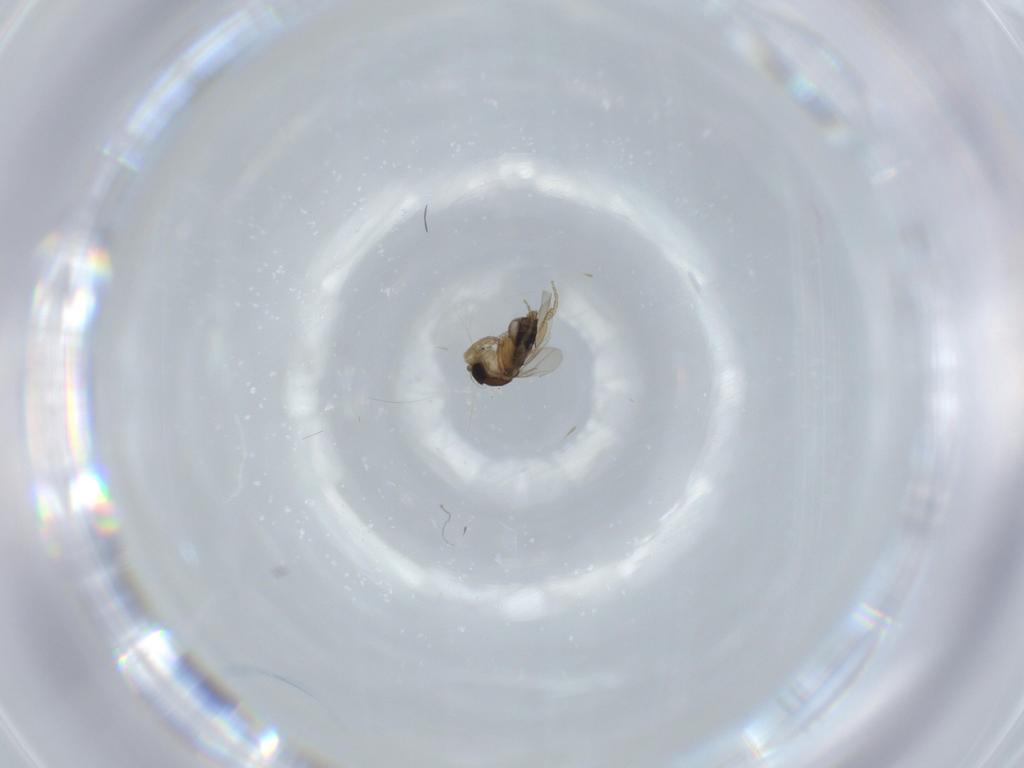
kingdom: Animalia
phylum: Arthropoda
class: Insecta
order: Diptera
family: Phoridae
